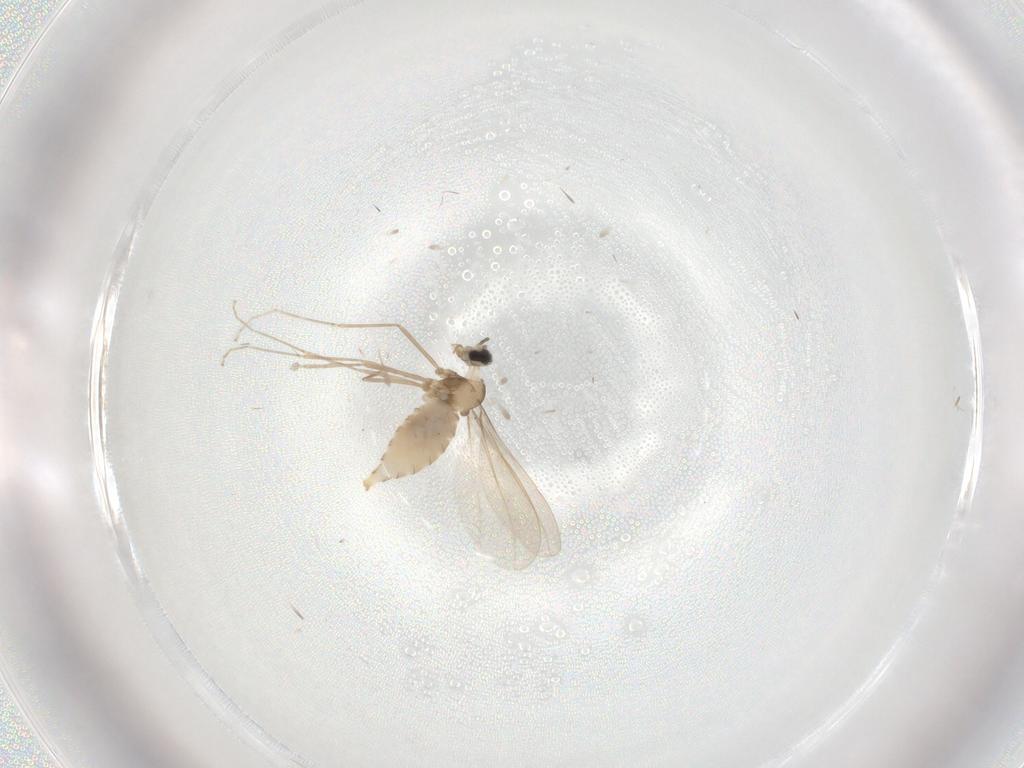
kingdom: Animalia
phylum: Arthropoda
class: Insecta
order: Diptera
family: Cecidomyiidae
